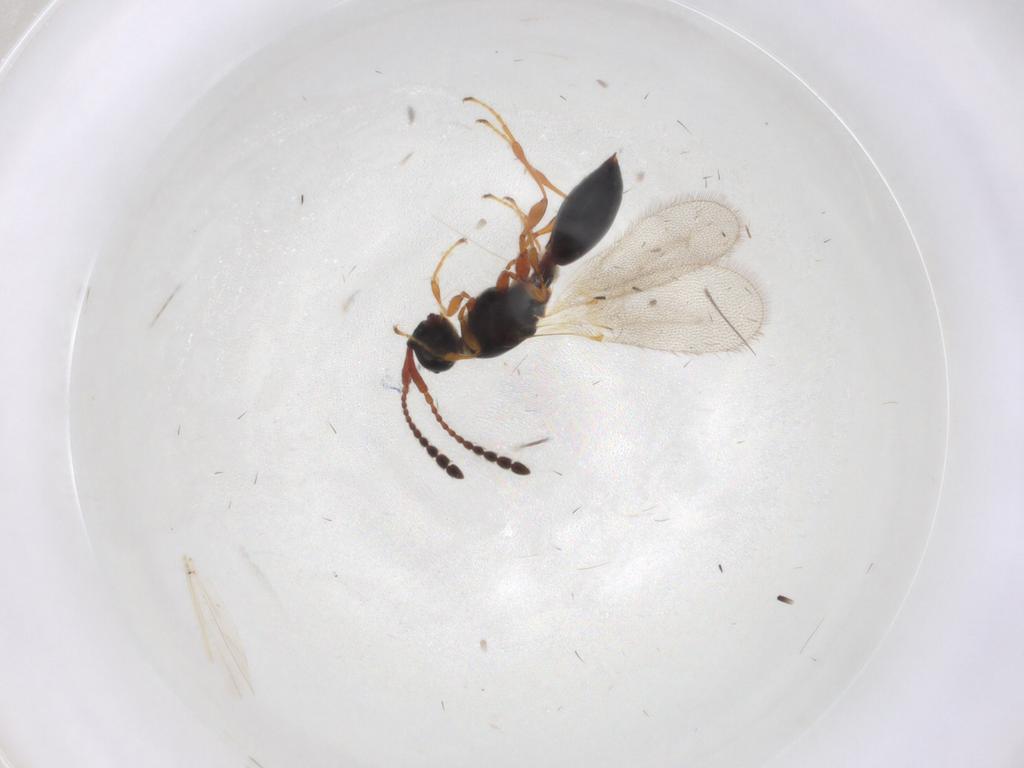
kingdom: Animalia
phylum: Arthropoda
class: Insecta
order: Hymenoptera
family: Diapriidae
